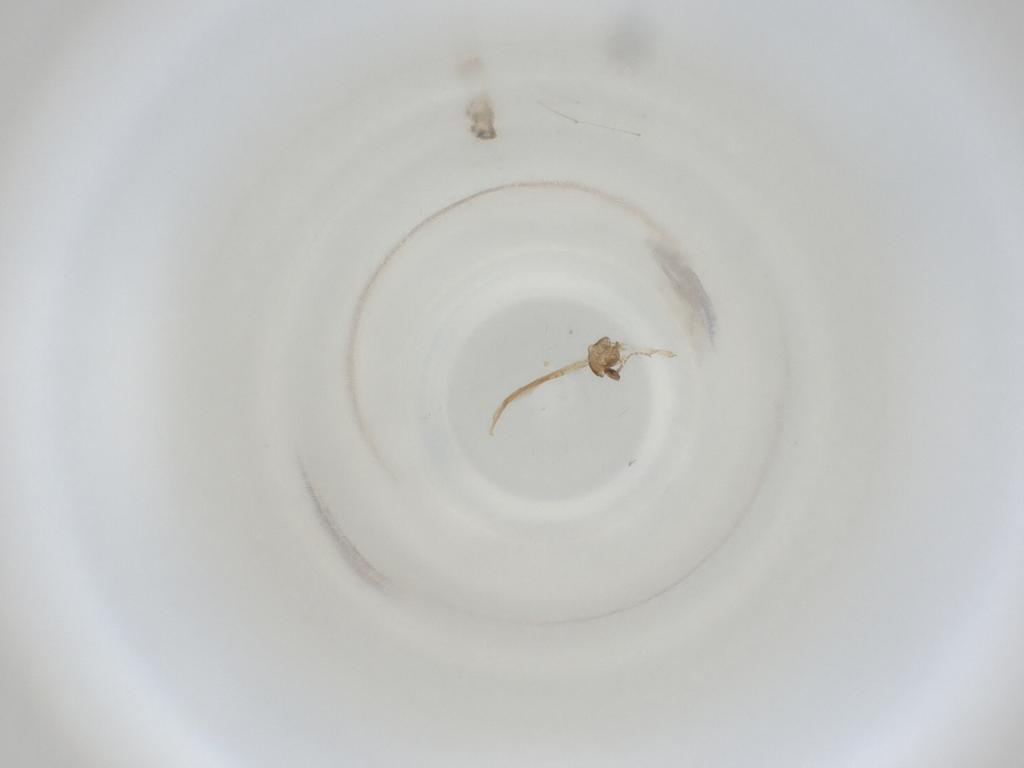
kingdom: Animalia
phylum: Arthropoda
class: Insecta
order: Diptera
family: Cecidomyiidae
